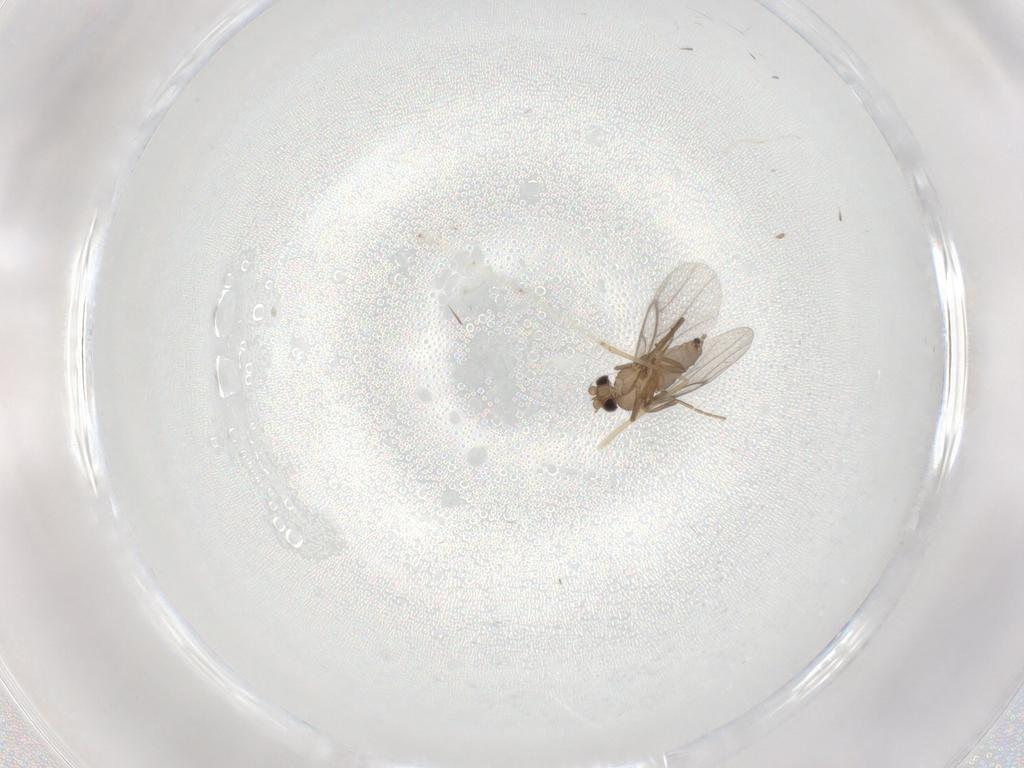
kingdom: Animalia
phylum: Arthropoda
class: Insecta
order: Diptera
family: Cecidomyiidae
